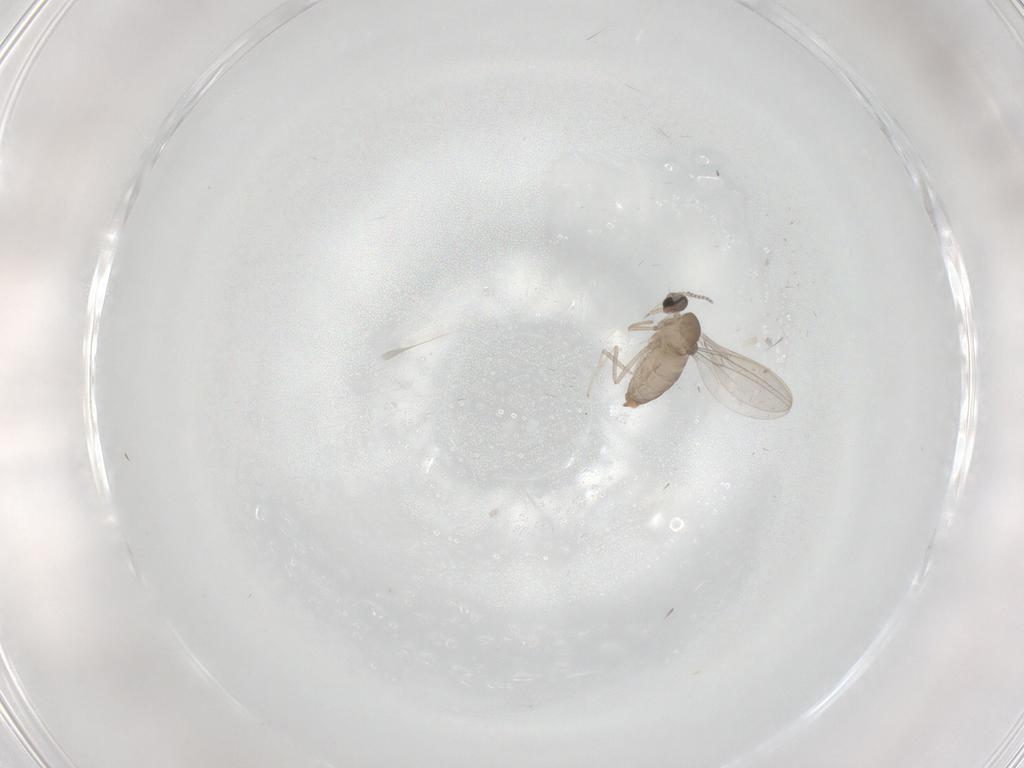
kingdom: Animalia
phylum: Arthropoda
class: Insecta
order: Diptera
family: Cecidomyiidae
